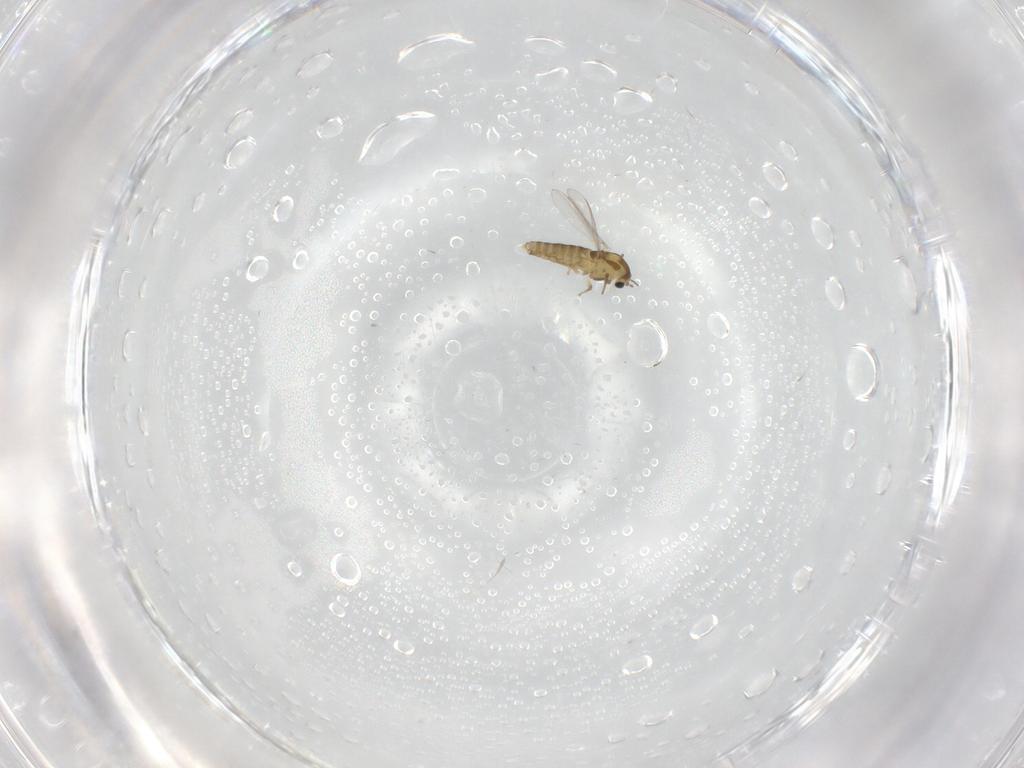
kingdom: Animalia
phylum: Arthropoda
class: Insecta
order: Diptera
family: Chironomidae
